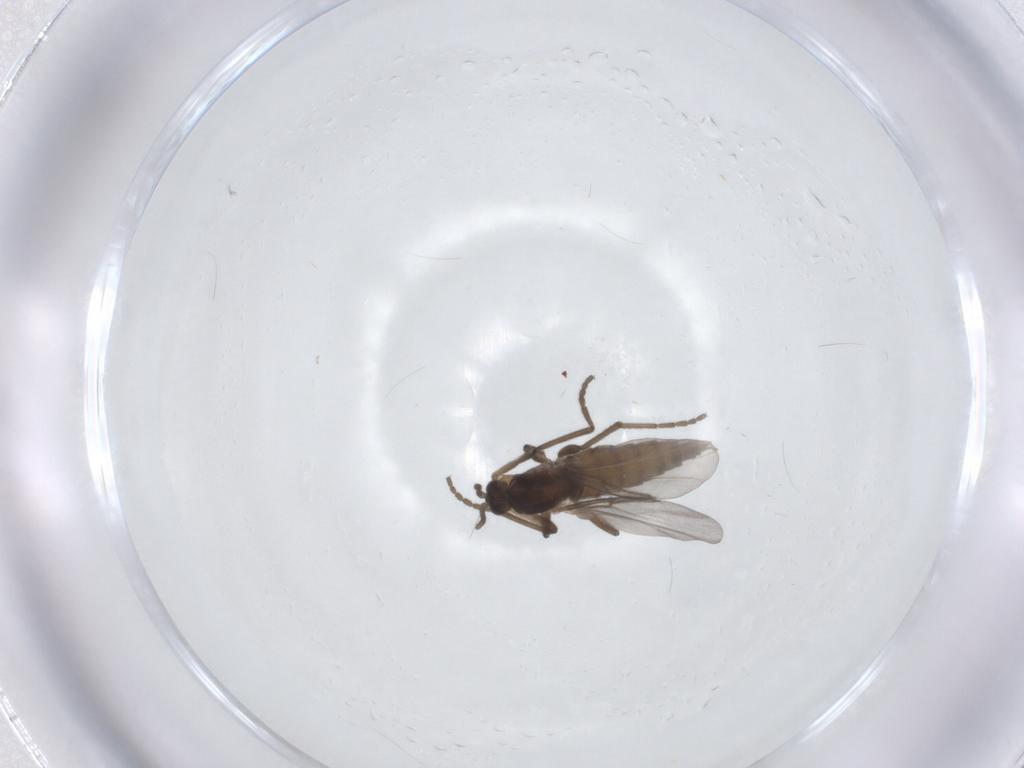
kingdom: Animalia
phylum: Arthropoda
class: Insecta
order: Diptera
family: Cecidomyiidae
